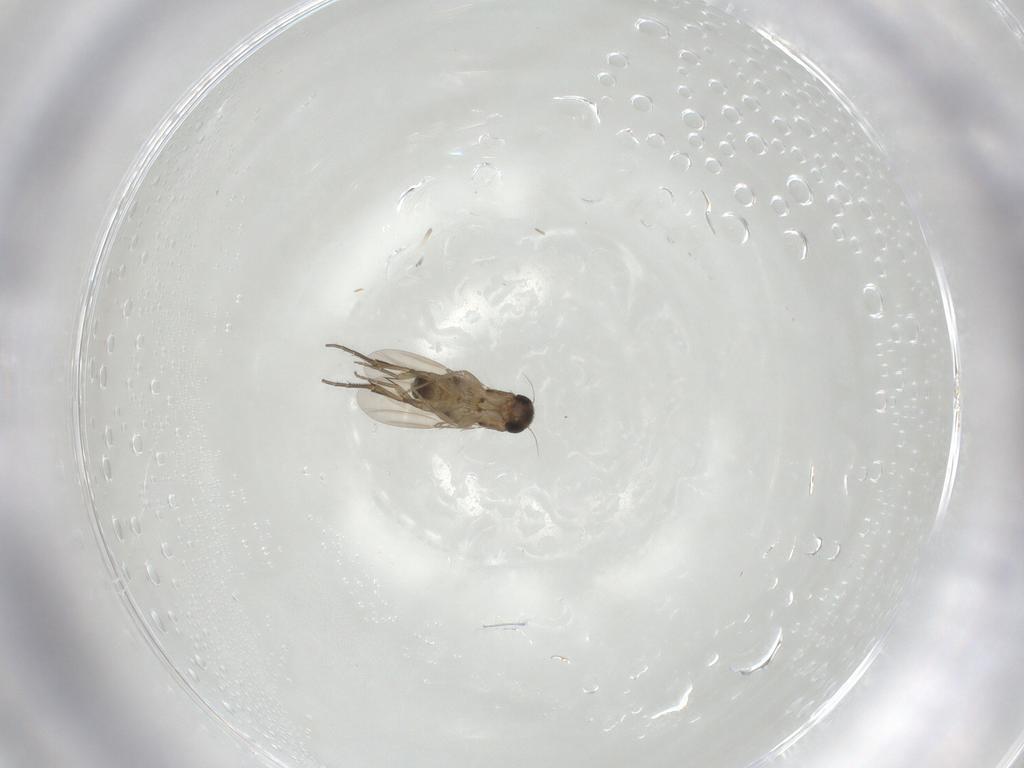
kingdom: Animalia
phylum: Arthropoda
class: Insecta
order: Diptera
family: Phoridae
